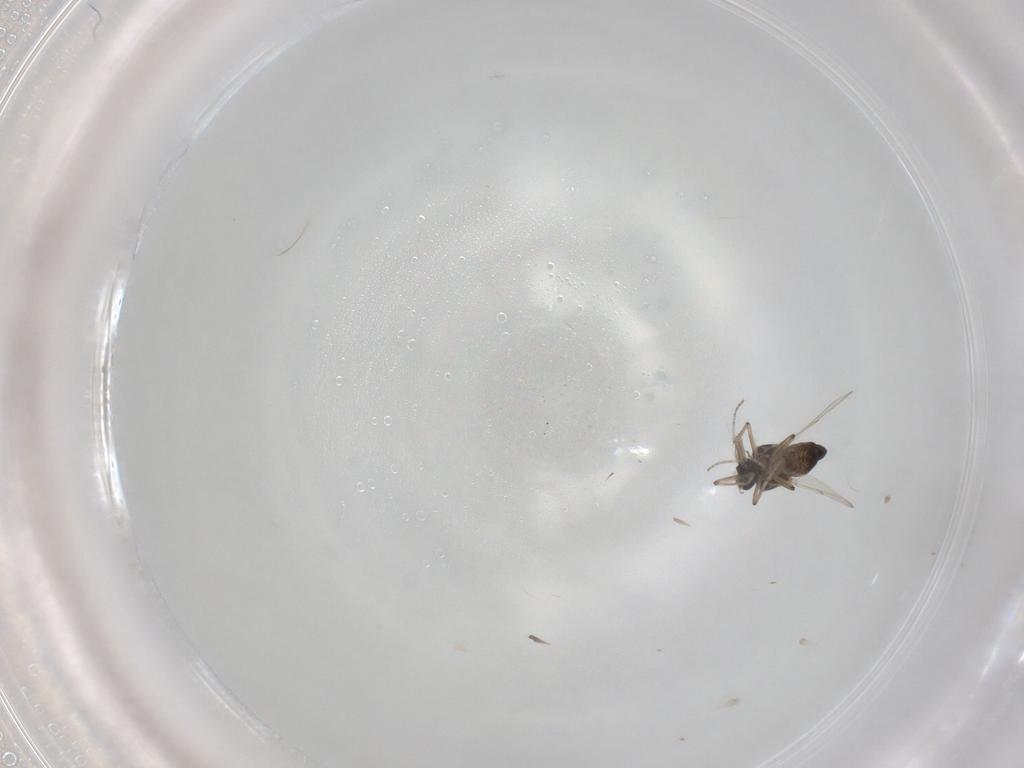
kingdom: Animalia
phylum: Arthropoda
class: Insecta
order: Diptera
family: Ceratopogonidae
